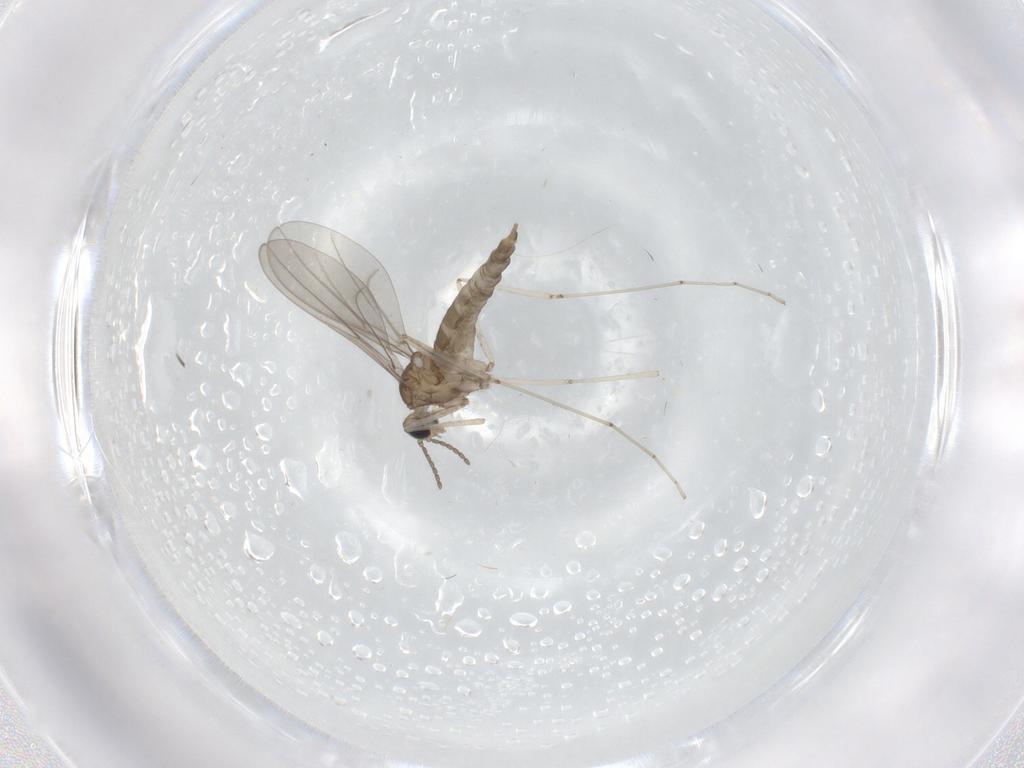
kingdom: Animalia
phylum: Arthropoda
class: Insecta
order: Diptera
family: Cecidomyiidae
